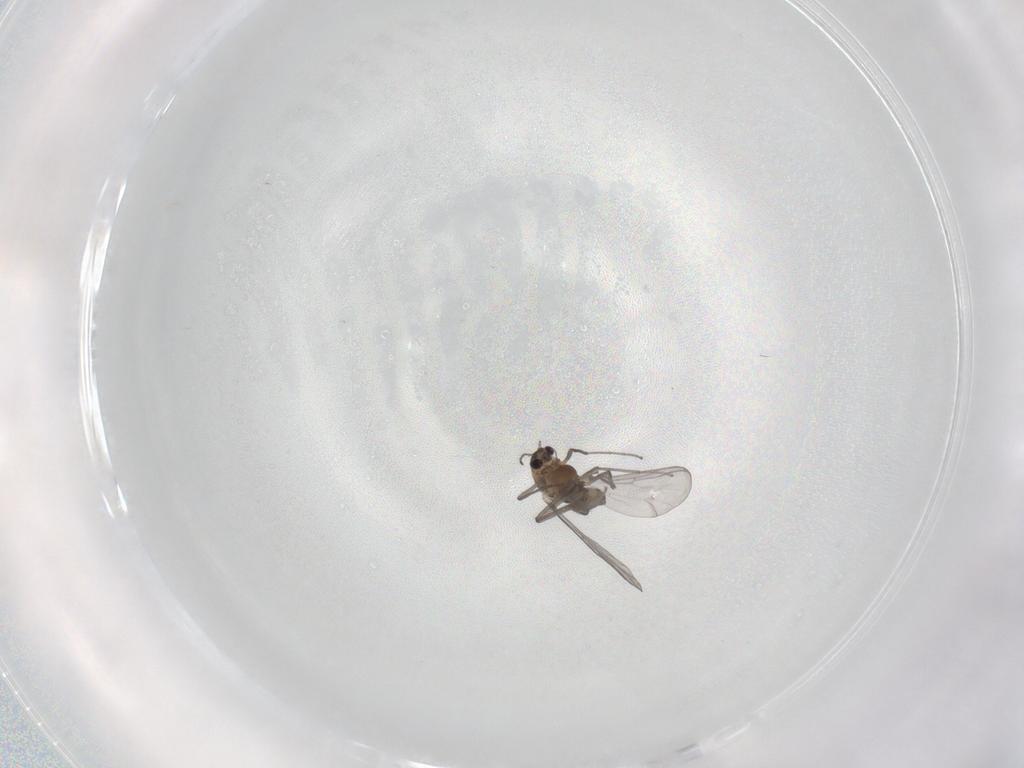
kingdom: Animalia
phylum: Arthropoda
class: Insecta
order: Diptera
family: Chironomidae
